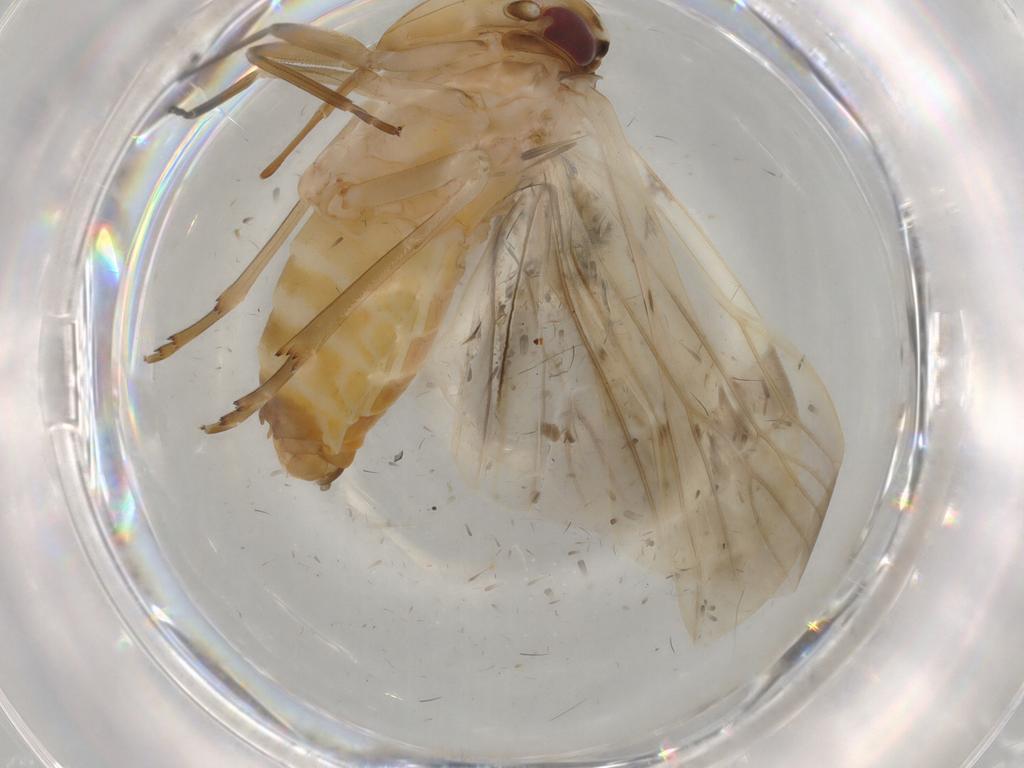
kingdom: Animalia
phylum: Arthropoda
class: Insecta
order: Hemiptera
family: Achilidae
